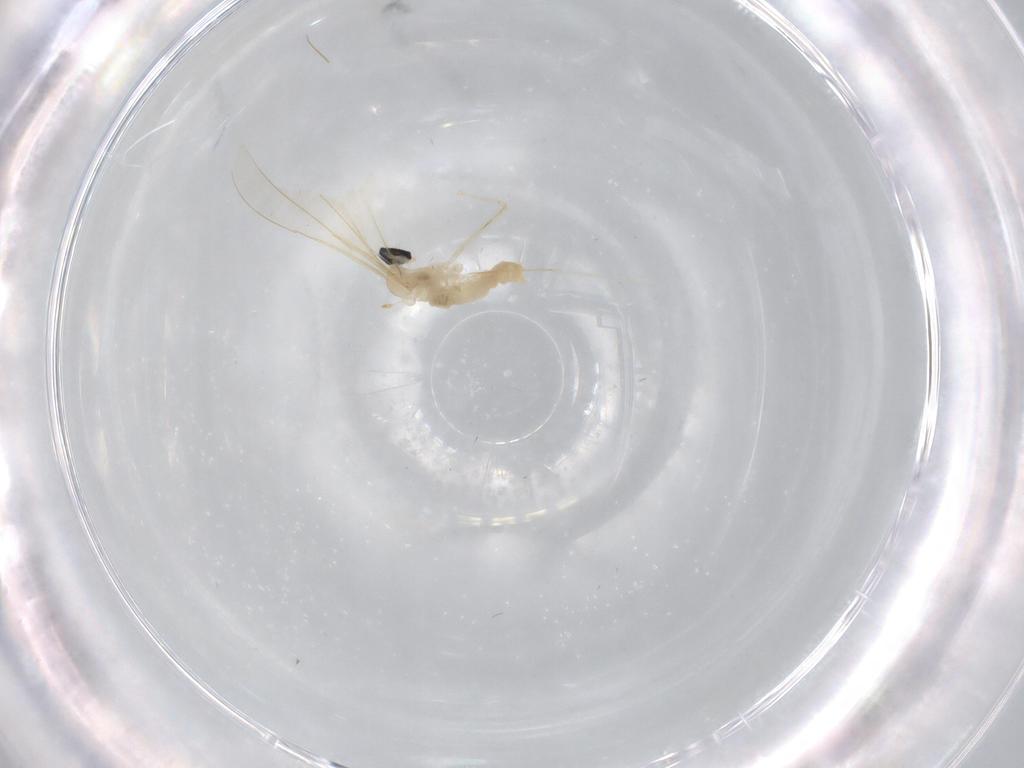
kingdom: Animalia
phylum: Arthropoda
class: Insecta
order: Diptera
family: Cecidomyiidae
